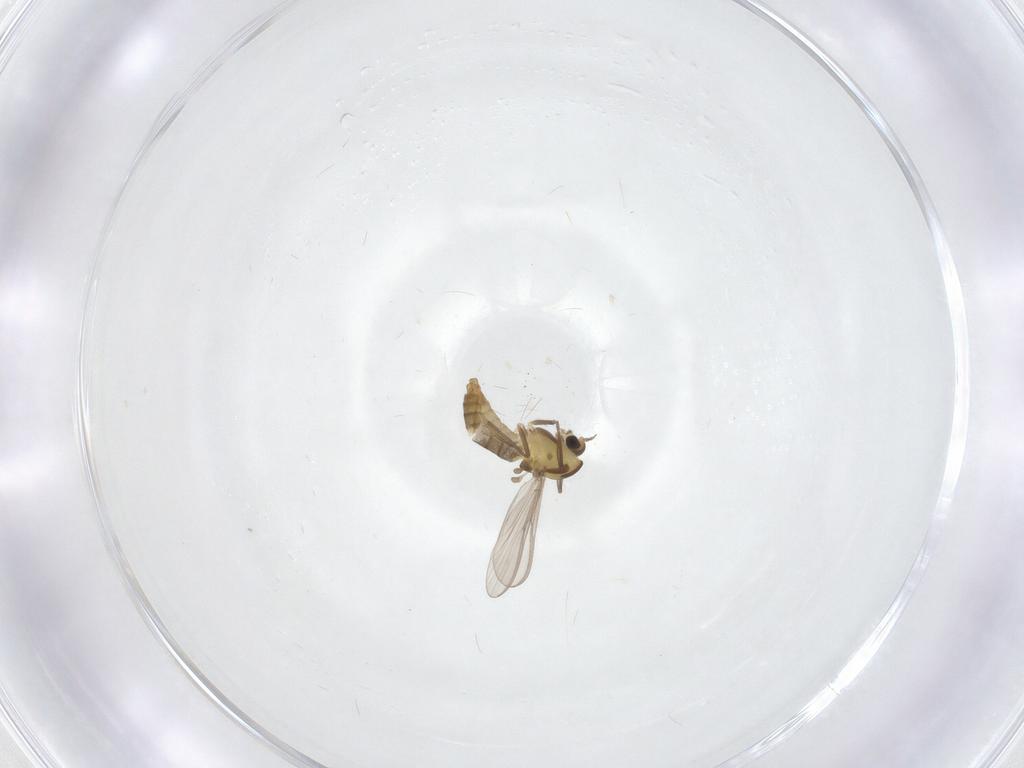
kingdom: Animalia
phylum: Arthropoda
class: Insecta
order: Diptera
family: Chironomidae
